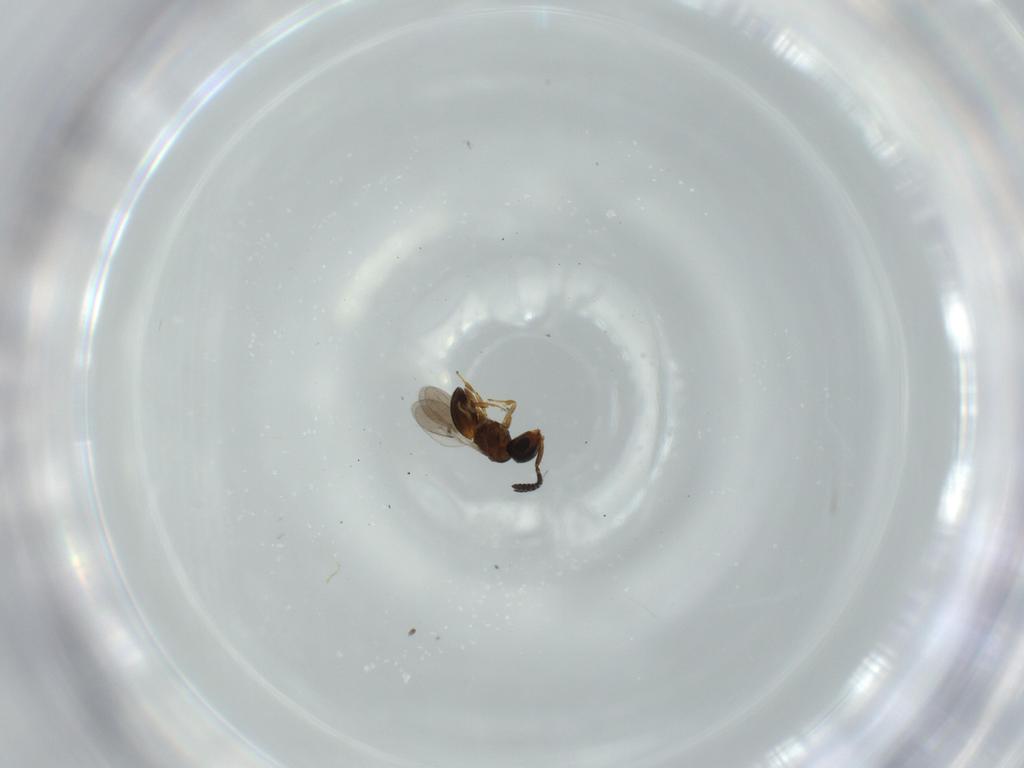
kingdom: Animalia
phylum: Arthropoda
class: Insecta
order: Hymenoptera
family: Scelionidae
